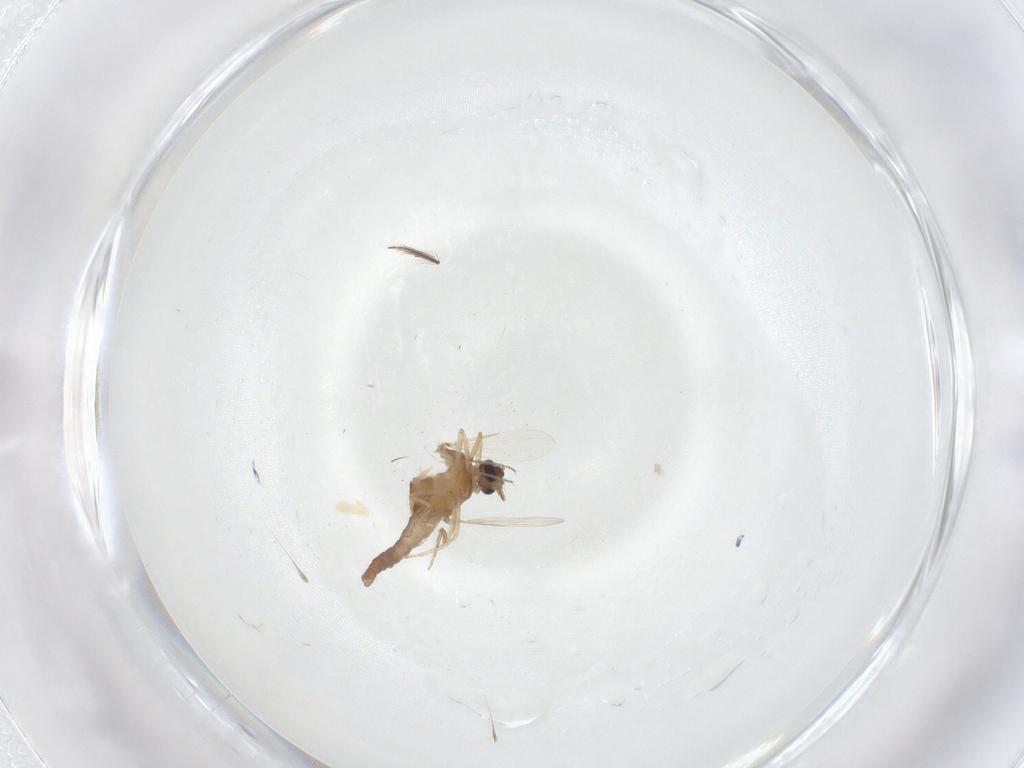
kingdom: Animalia
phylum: Arthropoda
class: Insecta
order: Diptera
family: Ceratopogonidae
